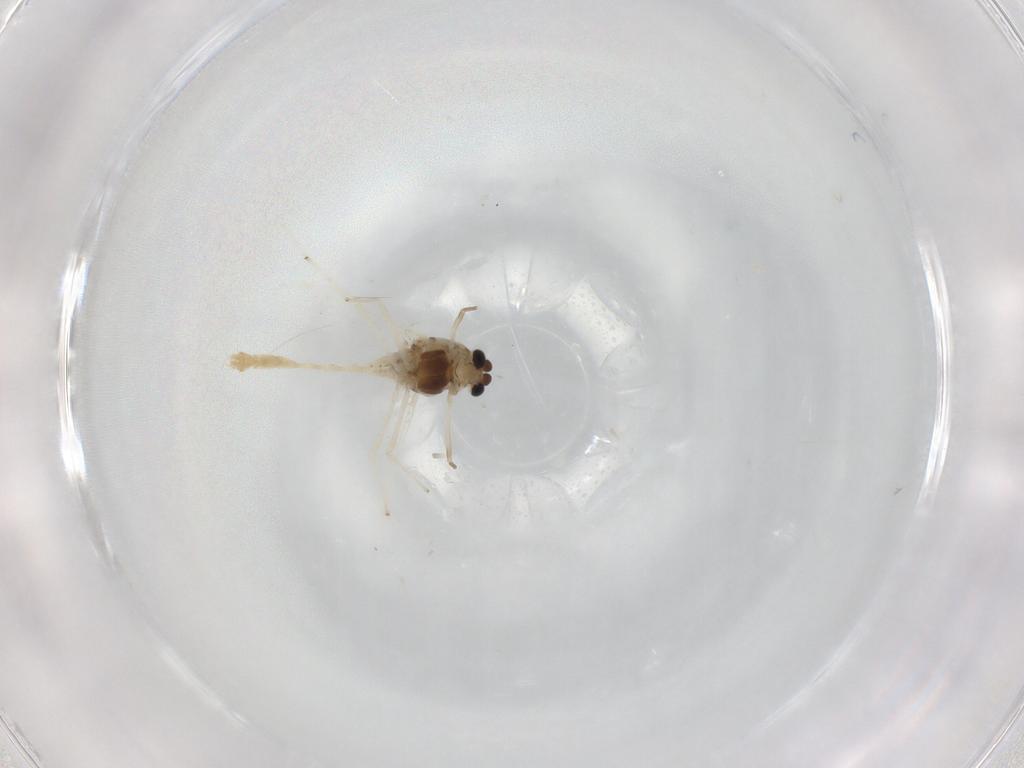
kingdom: Animalia
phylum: Arthropoda
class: Insecta
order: Diptera
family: Chironomidae
